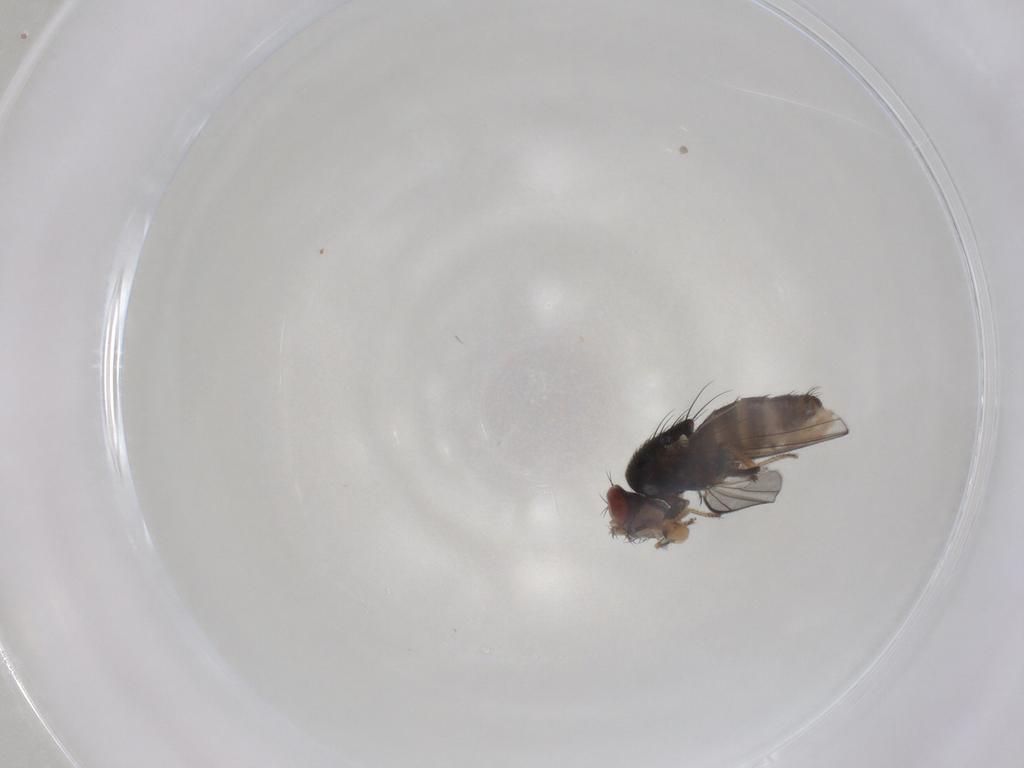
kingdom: Animalia
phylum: Arthropoda
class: Insecta
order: Diptera
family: Ephydridae
